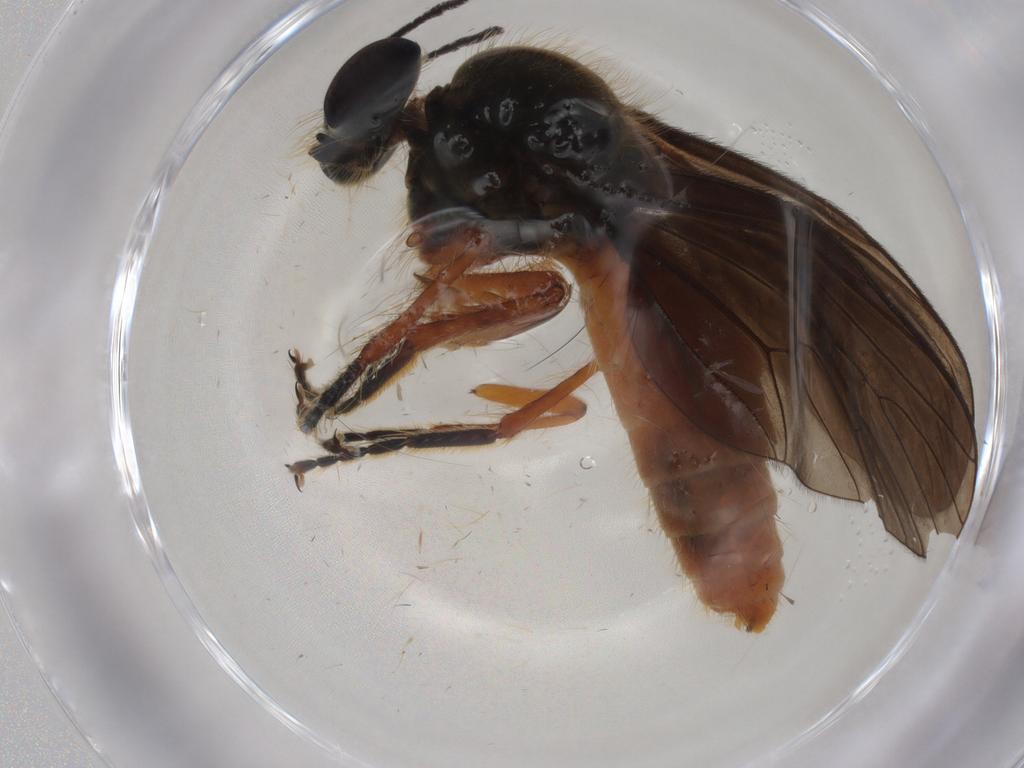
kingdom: Animalia
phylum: Arthropoda
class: Insecta
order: Diptera
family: Asilidae
